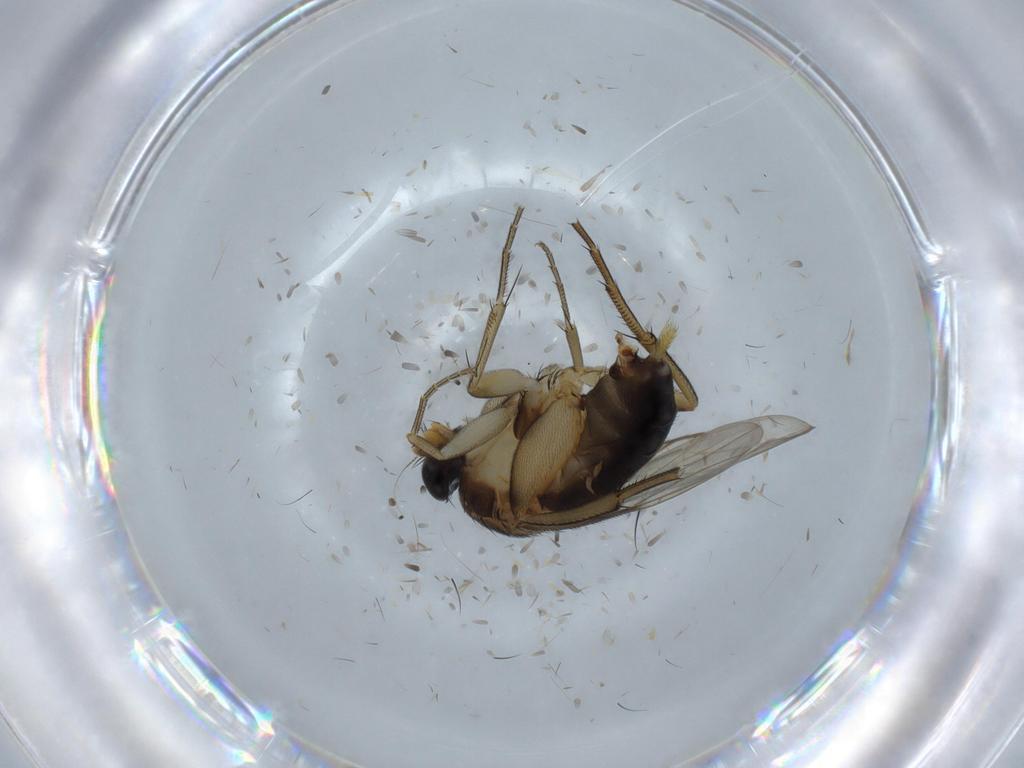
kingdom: Animalia
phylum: Arthropoda
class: Insecta
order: Diptera
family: Phoridae
